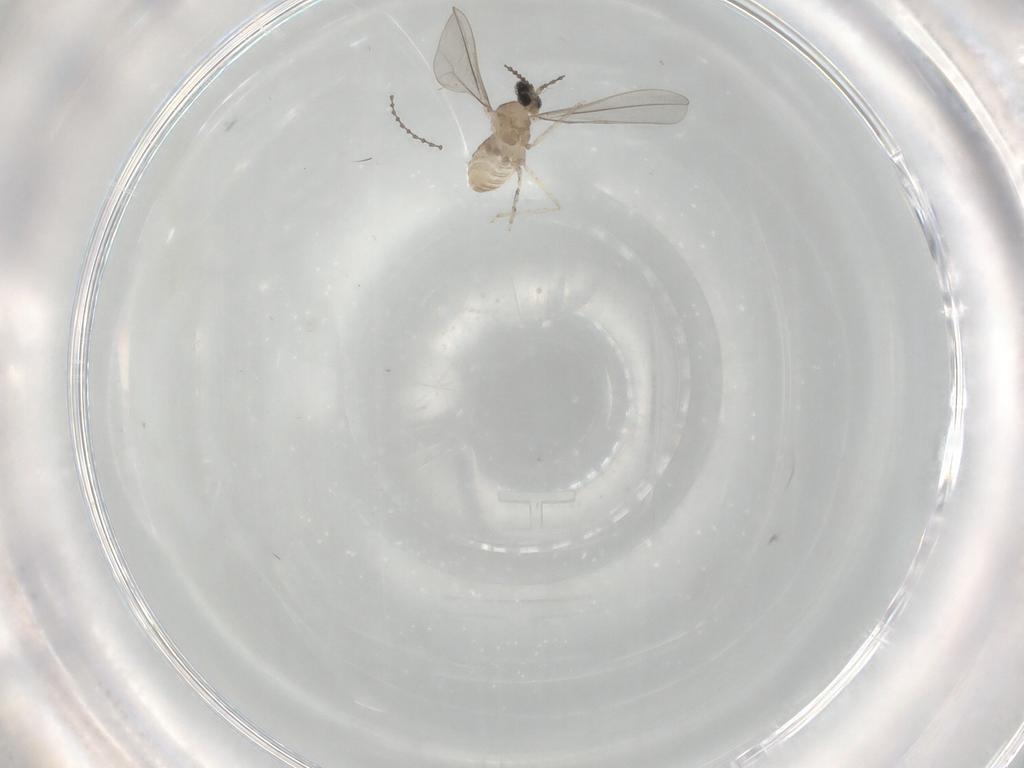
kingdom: Animalia
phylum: Arthropoda
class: Insecta
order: Diptera
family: Cecidomyiidae
